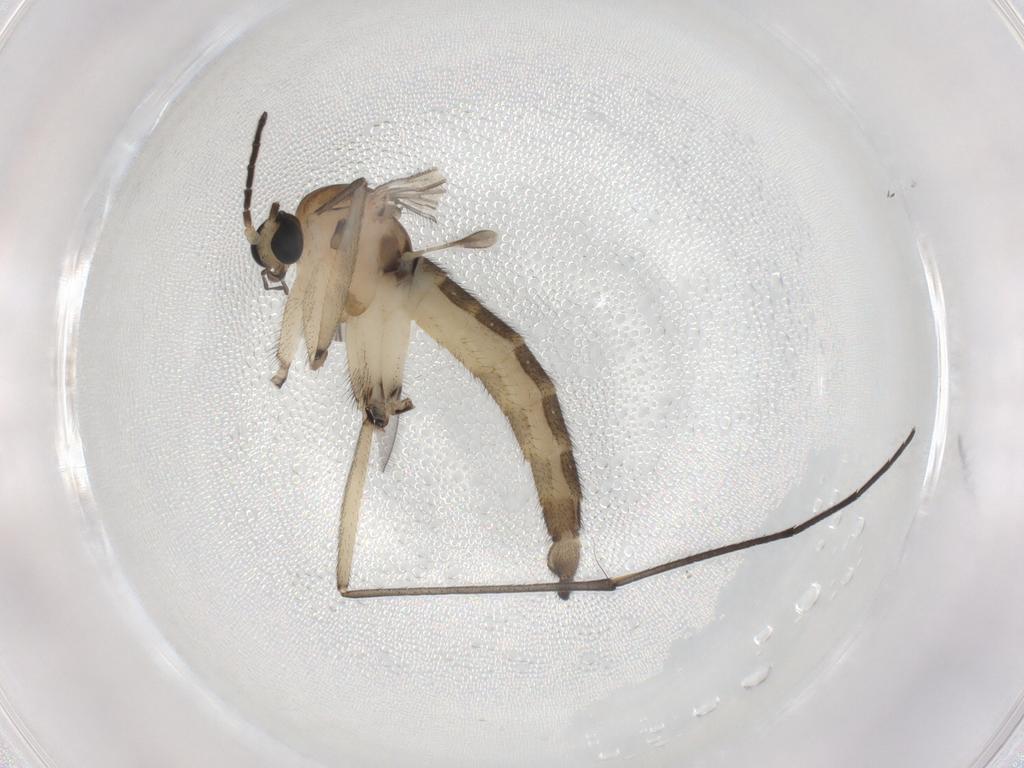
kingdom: Animalia
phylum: Arthropoda
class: Insecta
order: Diptera
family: Sciaridae
